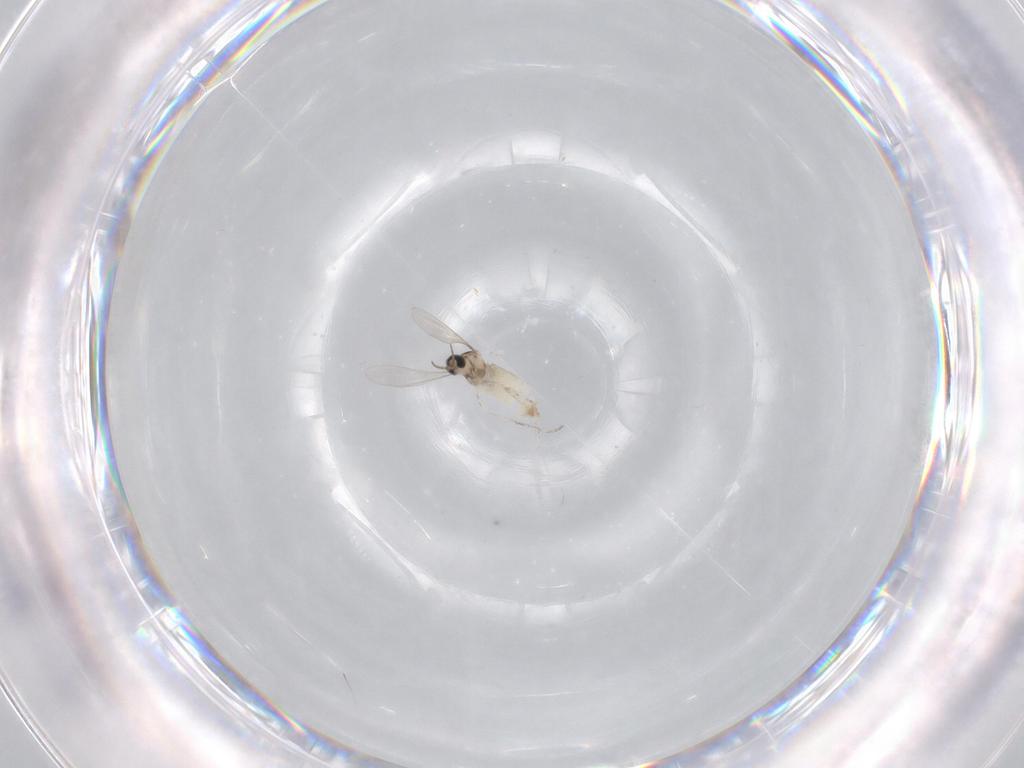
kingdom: Animalia
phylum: Arthropoda
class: Insecta
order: Diptera
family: Cecidomyiidae
